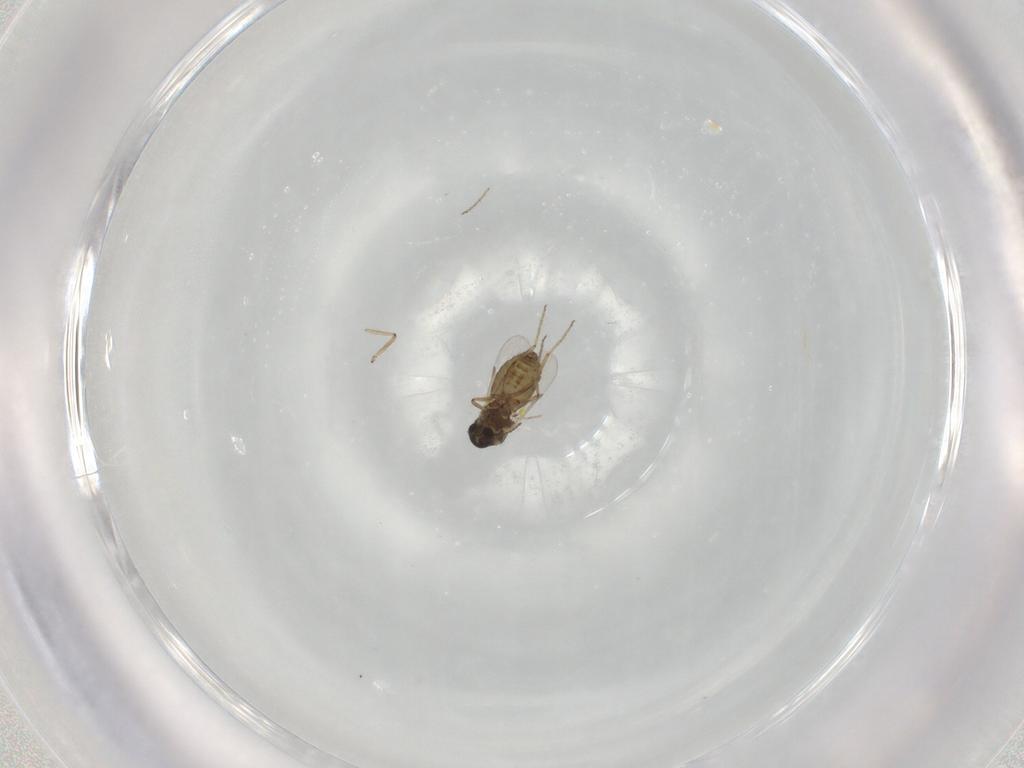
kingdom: Animalia
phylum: Arthropoda
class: Insecta
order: Diptera
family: Ceratopogonidae
